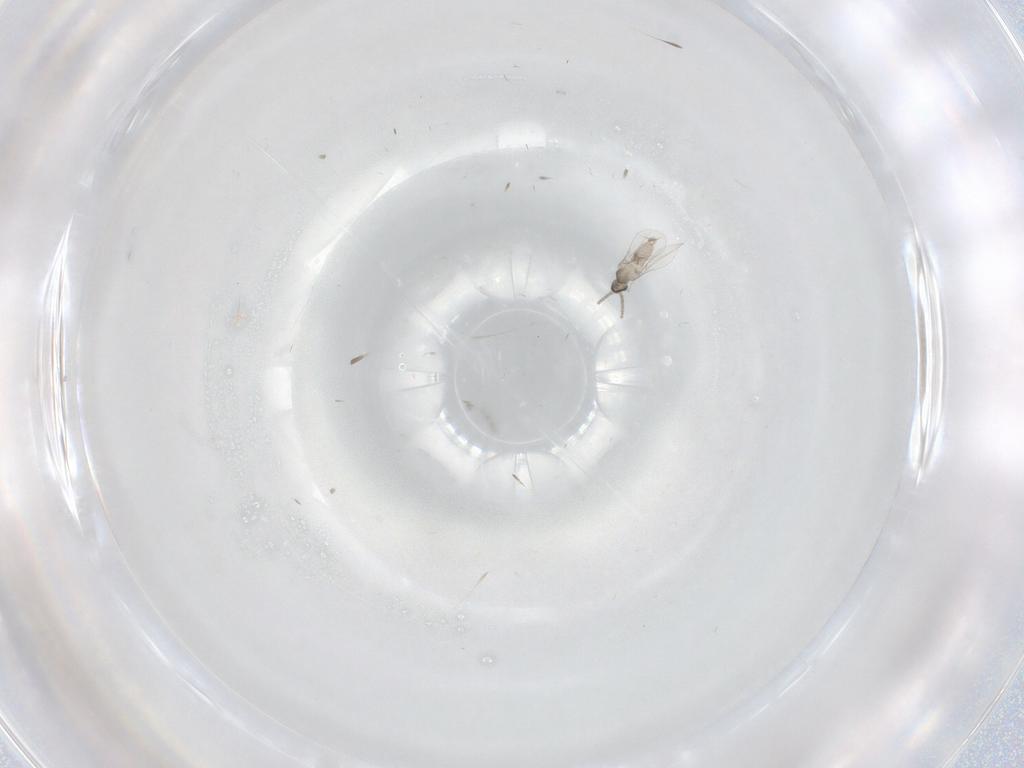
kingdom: Animalia
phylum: Arthropoda
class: Insecta
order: Diptera
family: Cecidomyiidae
